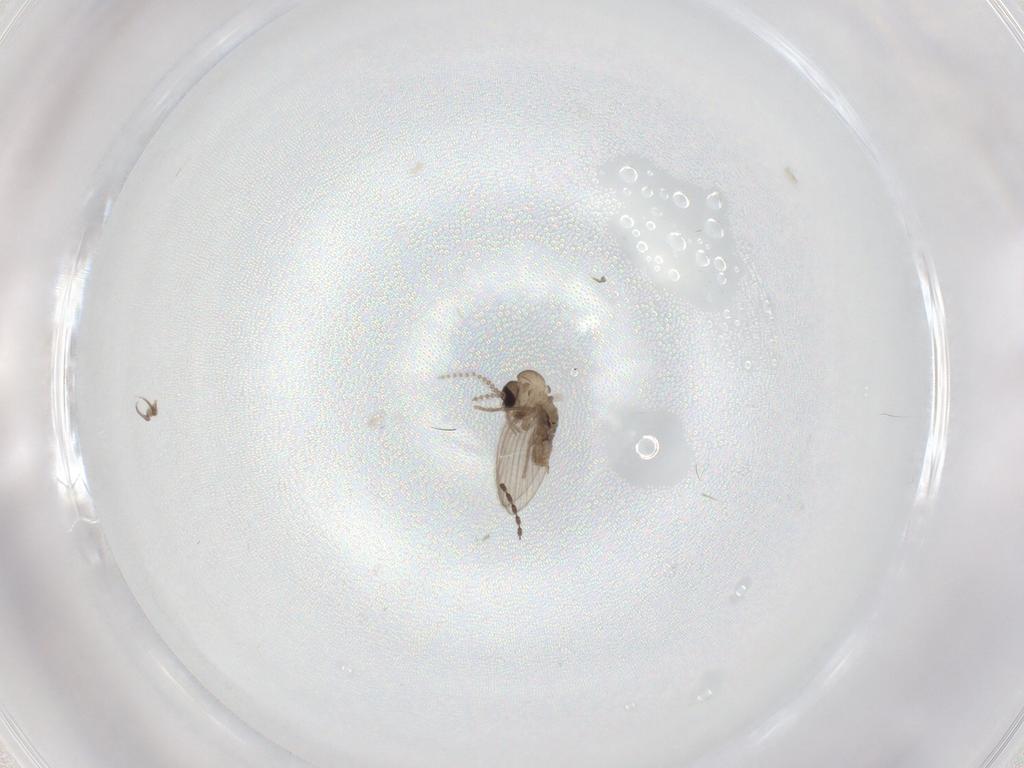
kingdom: Animalia
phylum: Arthropoda
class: Insecta
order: Diptera
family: Psychodidae
